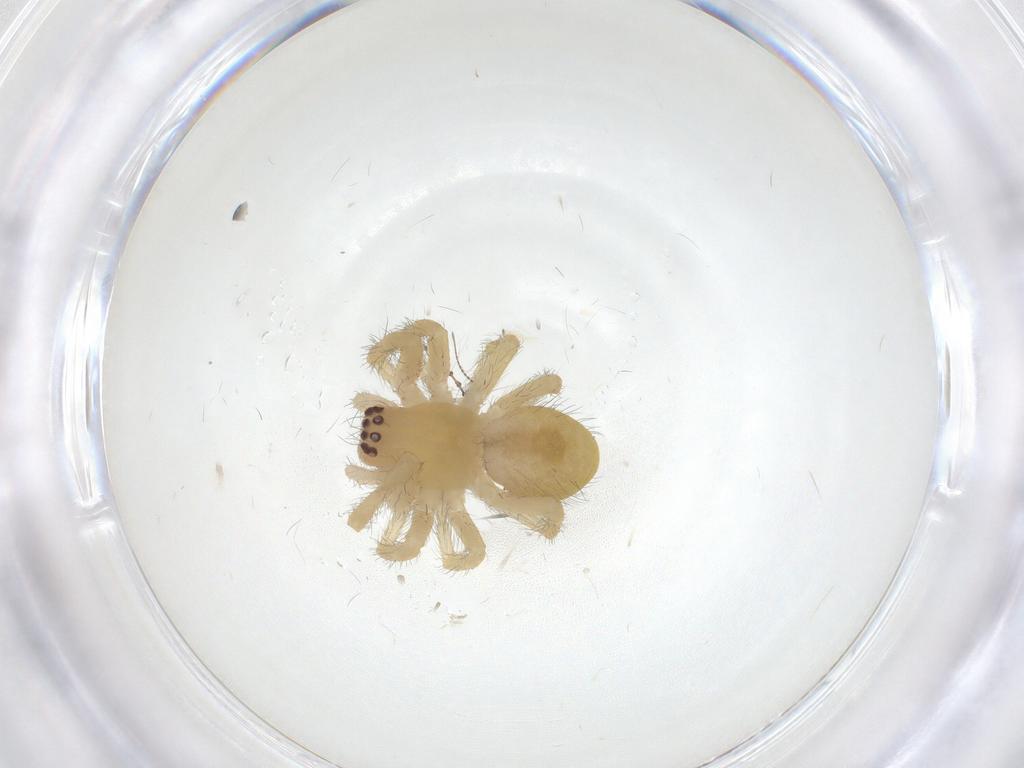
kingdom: Animalia
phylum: Arthropoda
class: Arachnida
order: Araneae
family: Mimetidae
